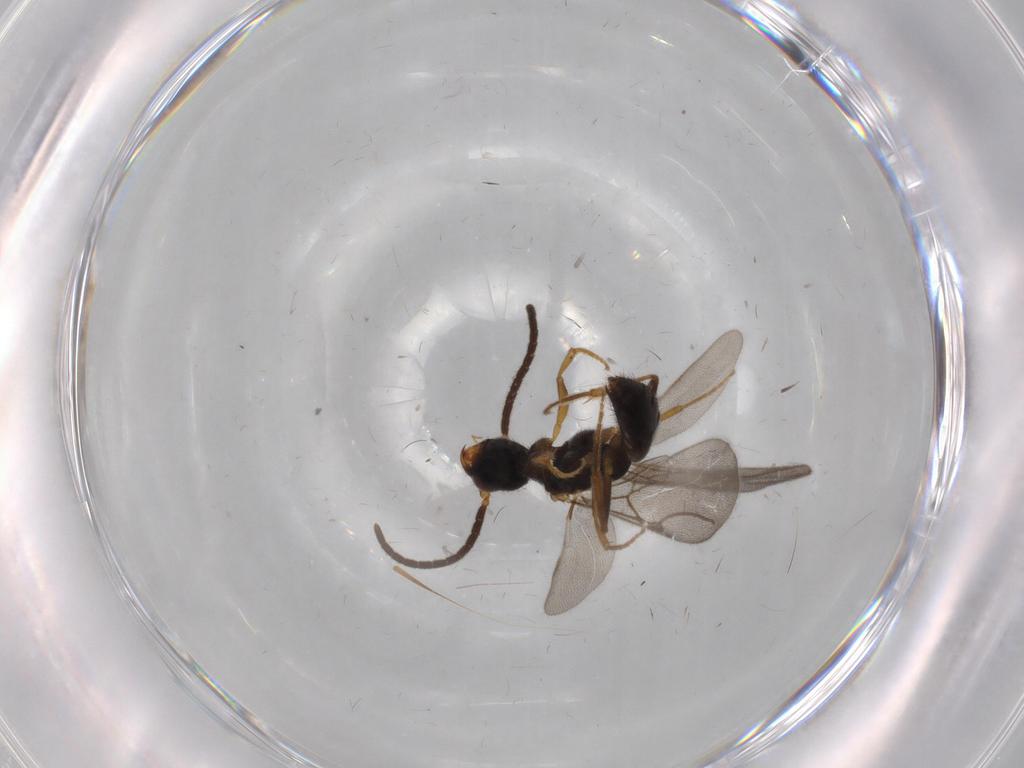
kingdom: Animalia
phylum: Arthropoda
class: Insecta
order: Hymenoptera
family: Bethylidae
